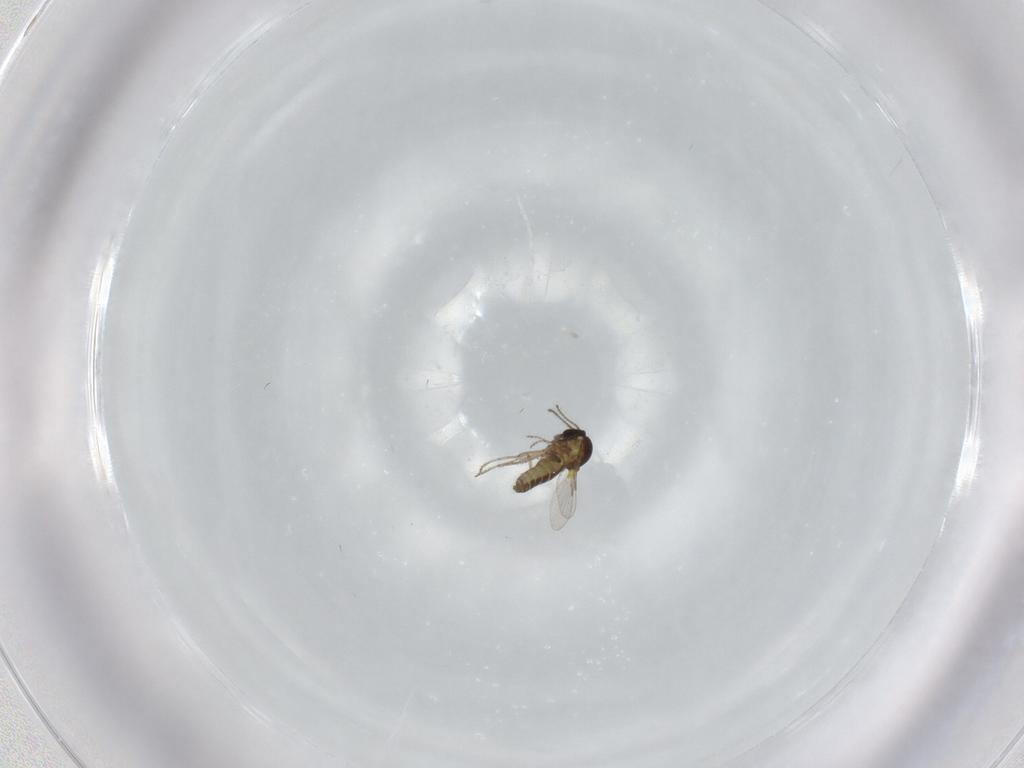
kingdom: Animalia
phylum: Arthropoda
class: Insecta
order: Diptera
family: Ceratopogonidae
